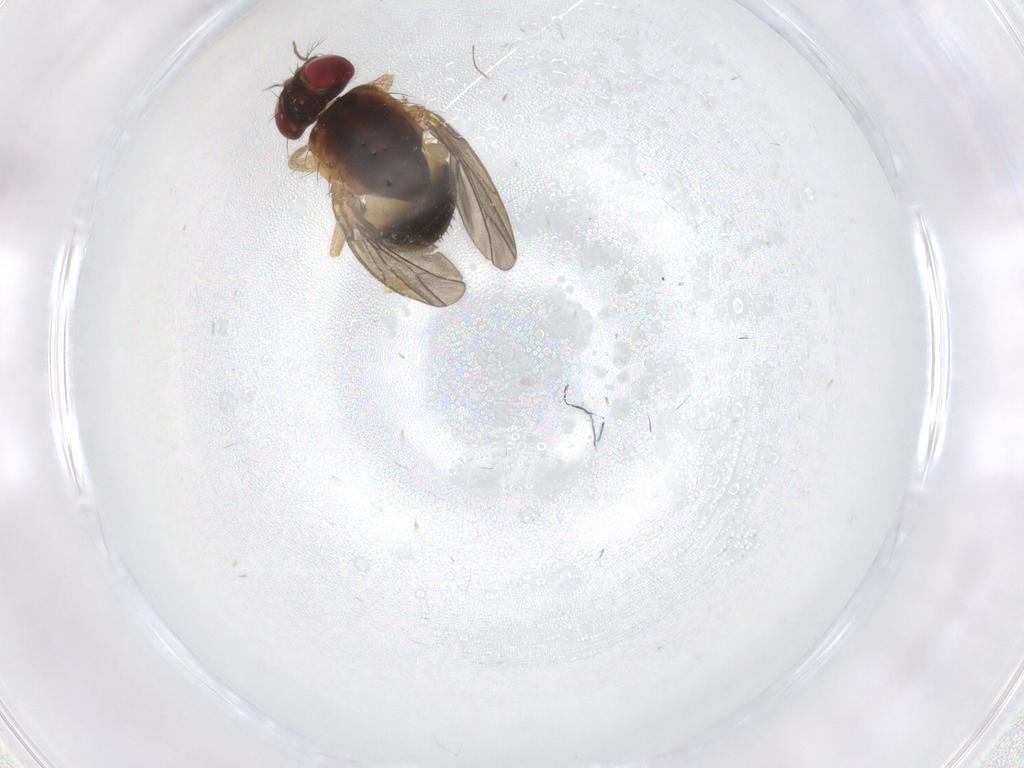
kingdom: Animalia
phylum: Arthropoda
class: Insecta
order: Diptera
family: Drosophilidae
